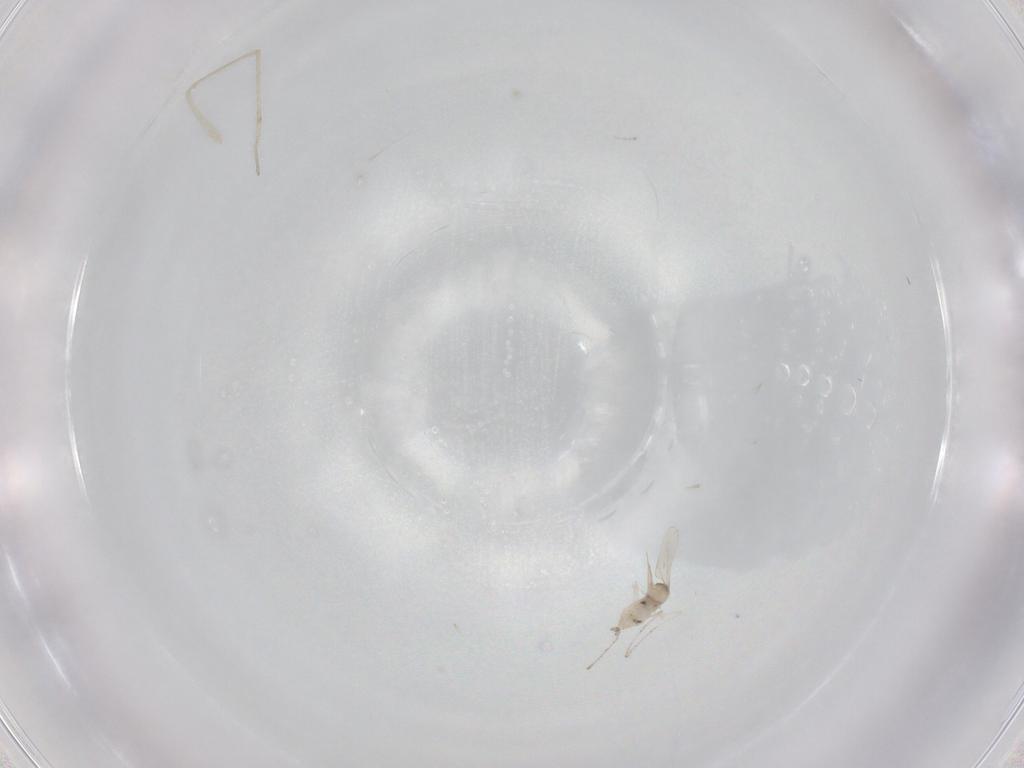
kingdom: Animalia
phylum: Arthropoda
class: Insecta
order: Diptera
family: Cecidomyiidae
